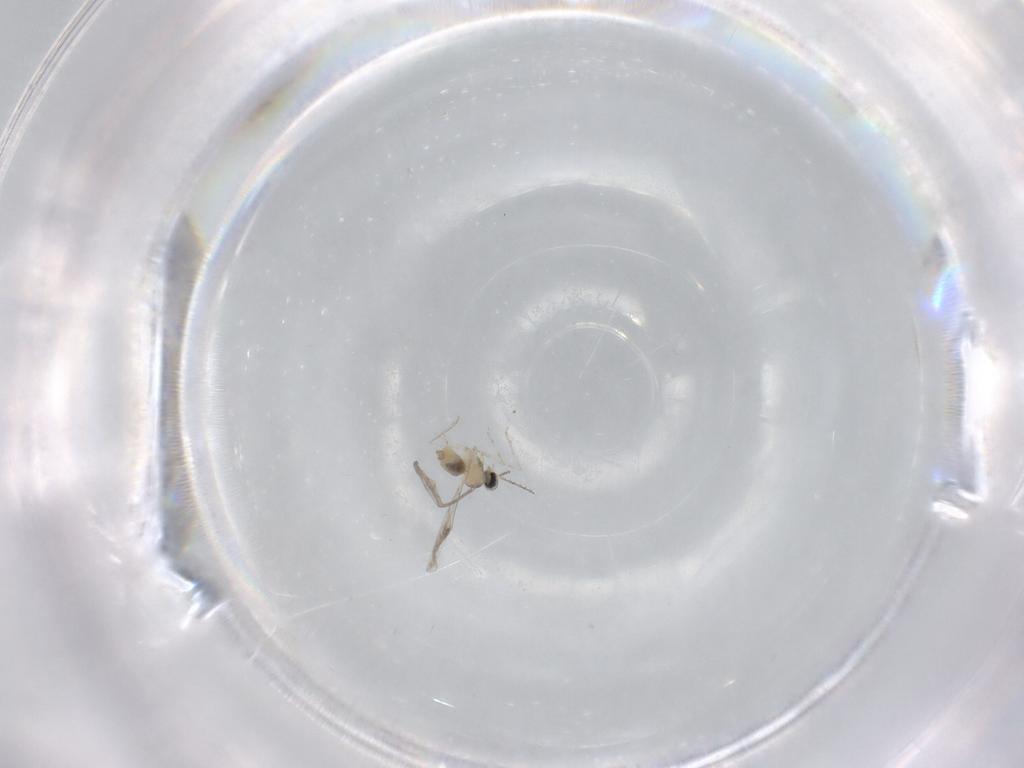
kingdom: Animalia
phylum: Arthropoda
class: Insecta
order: Diptera
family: Cecidomyiidae
